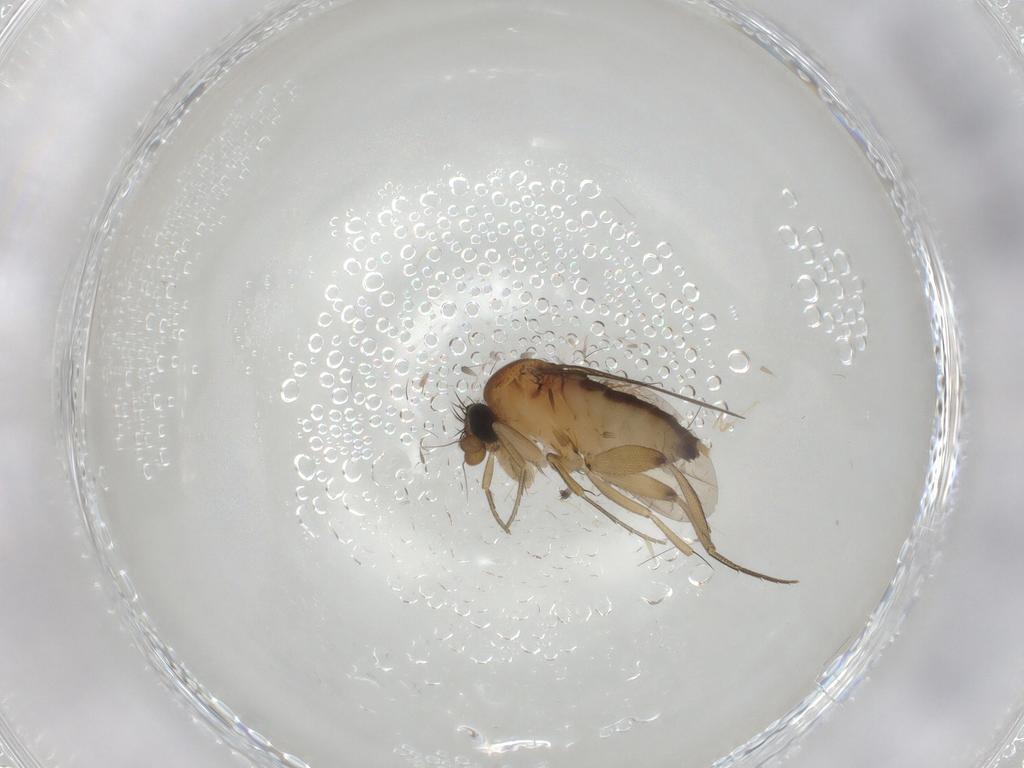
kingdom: Animalia
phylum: Arthropoda
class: Insecta
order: Diptera
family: Phoridae
